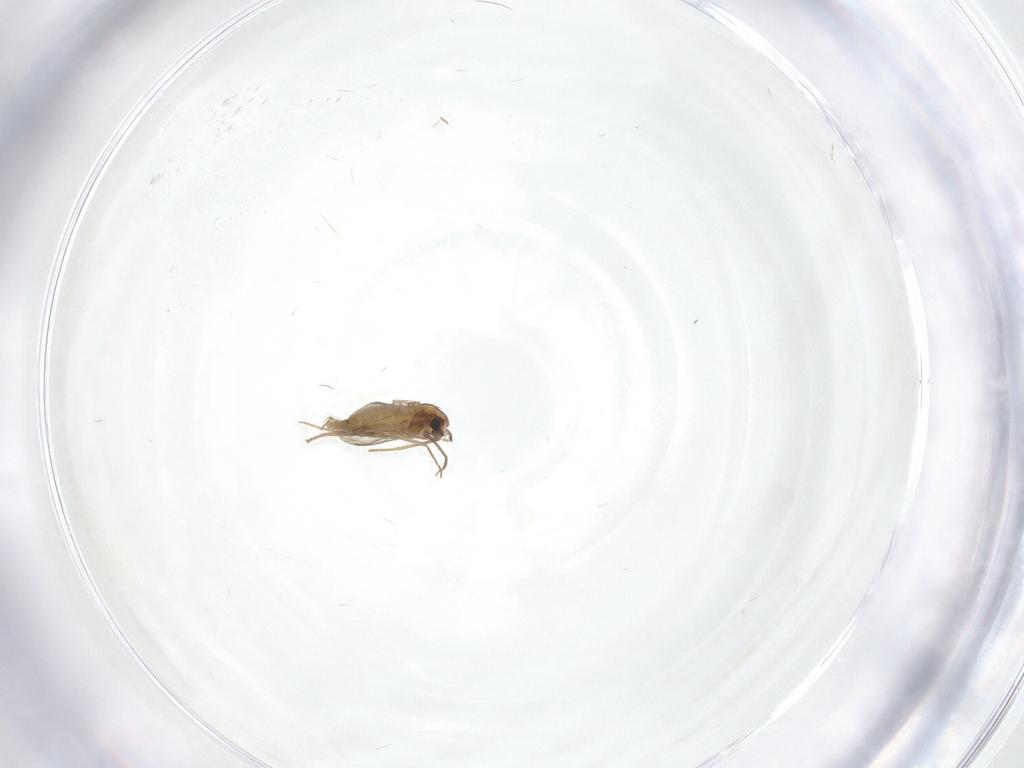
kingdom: Animalia
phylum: Arthropoda
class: Insecta
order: Diptera
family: Chironomidae
